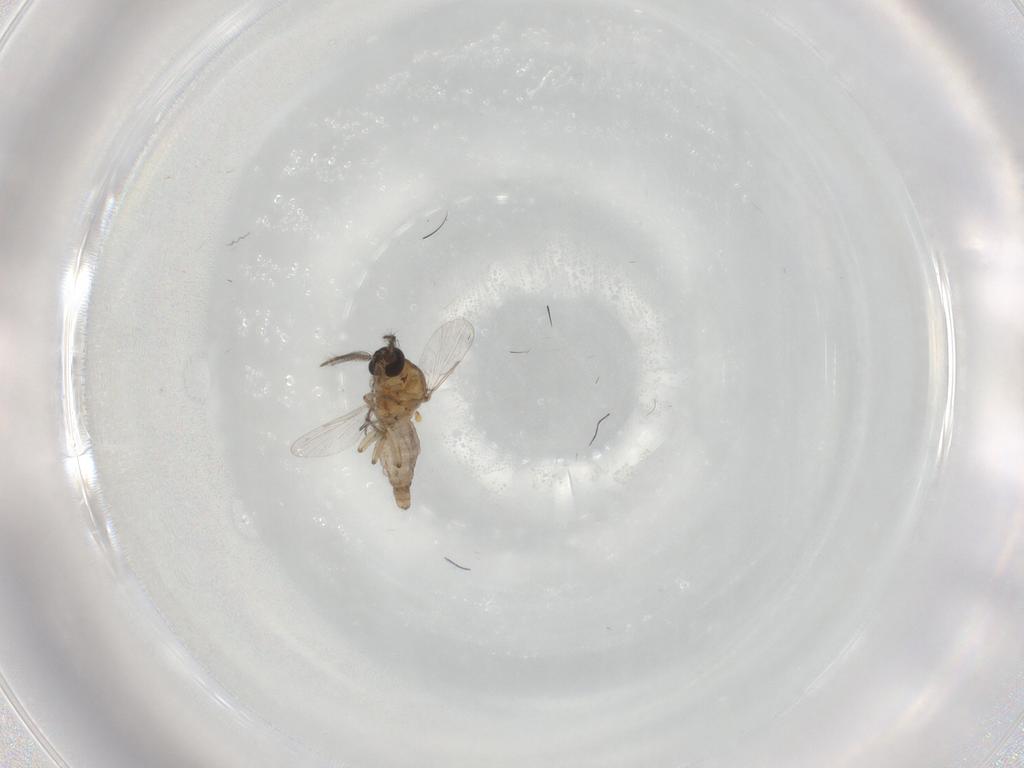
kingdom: Animalia
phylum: Arthropoda
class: Insecta
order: Diptera
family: Ceratopogonidae
